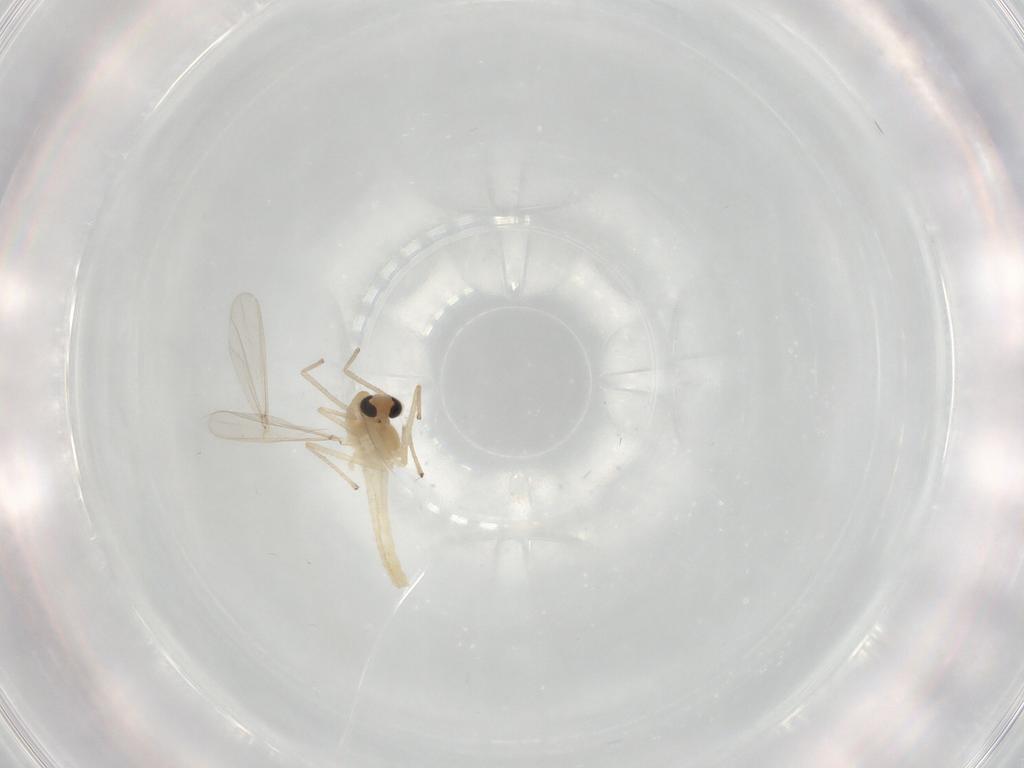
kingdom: Animalia
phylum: Arthropoda
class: Insecta
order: Diptera
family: Chironomidae
